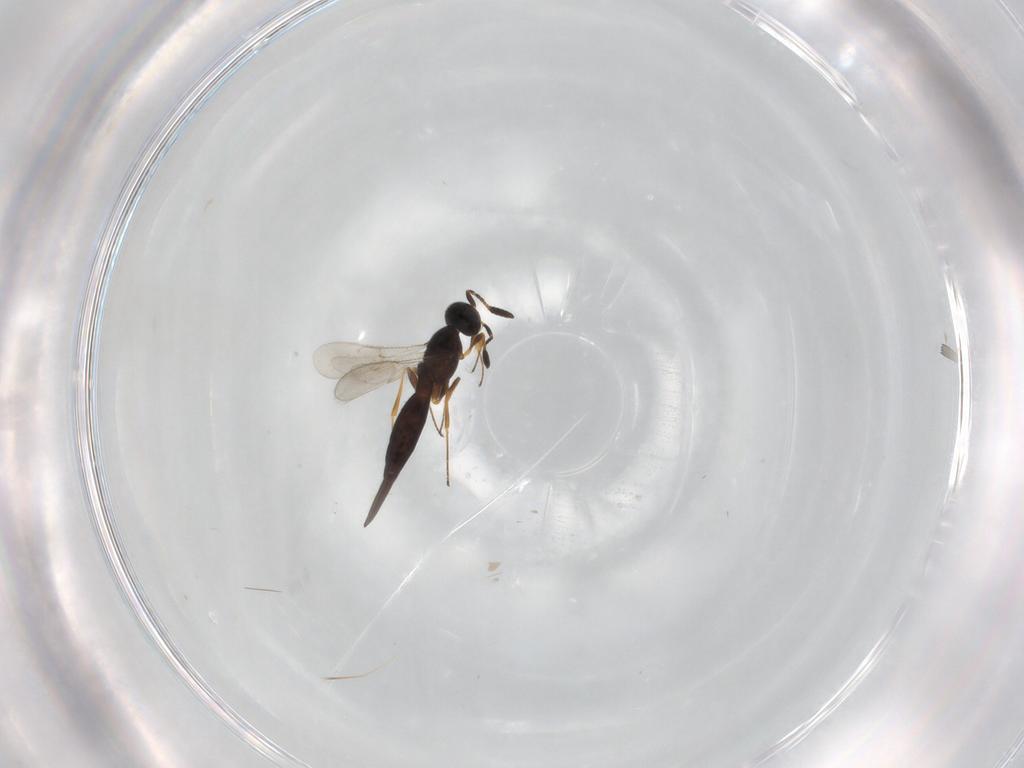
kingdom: Animalia
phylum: Arthropoda
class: Insecta
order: Hymenoptera
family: Scelionidae
